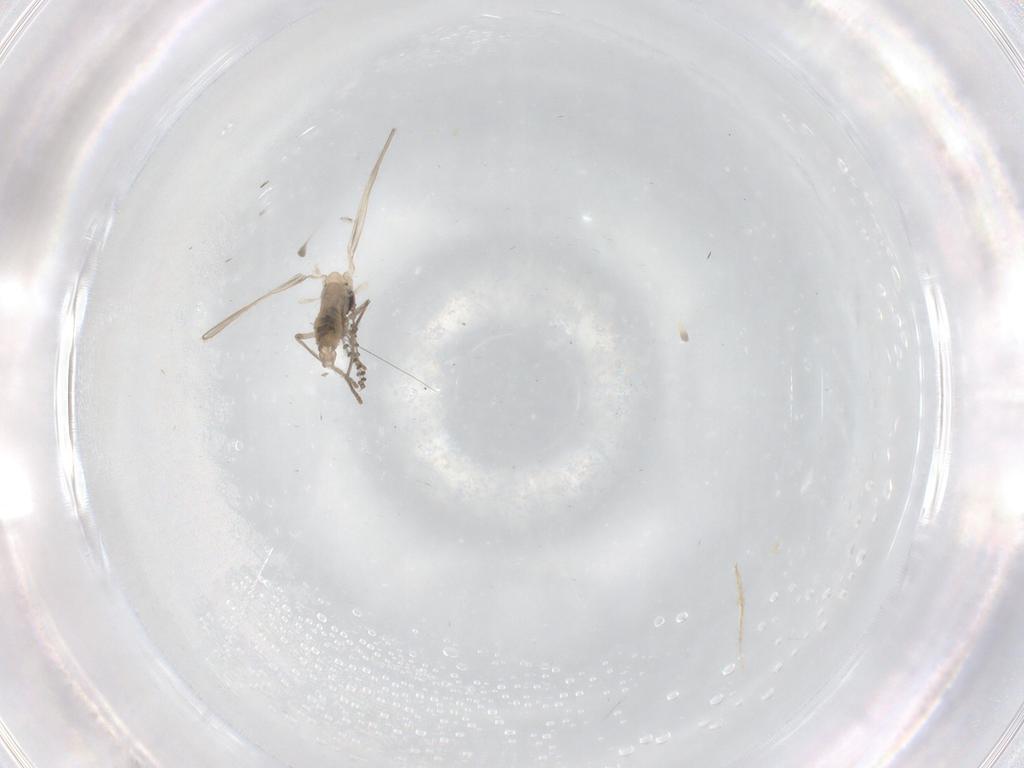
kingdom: Animalia
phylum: Arthropoda
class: Insecta
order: Diptera
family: Psychodidae
